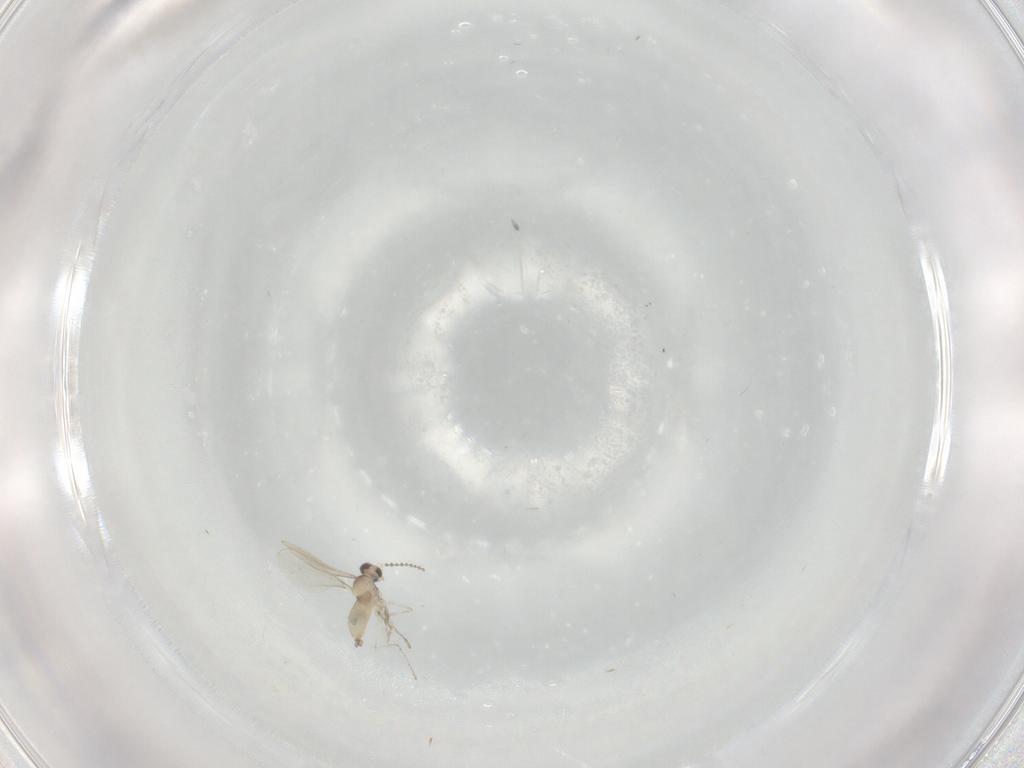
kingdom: Animalia
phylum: Arthropoda
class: Insecta
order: Diptera
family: Cecidomyiidae
